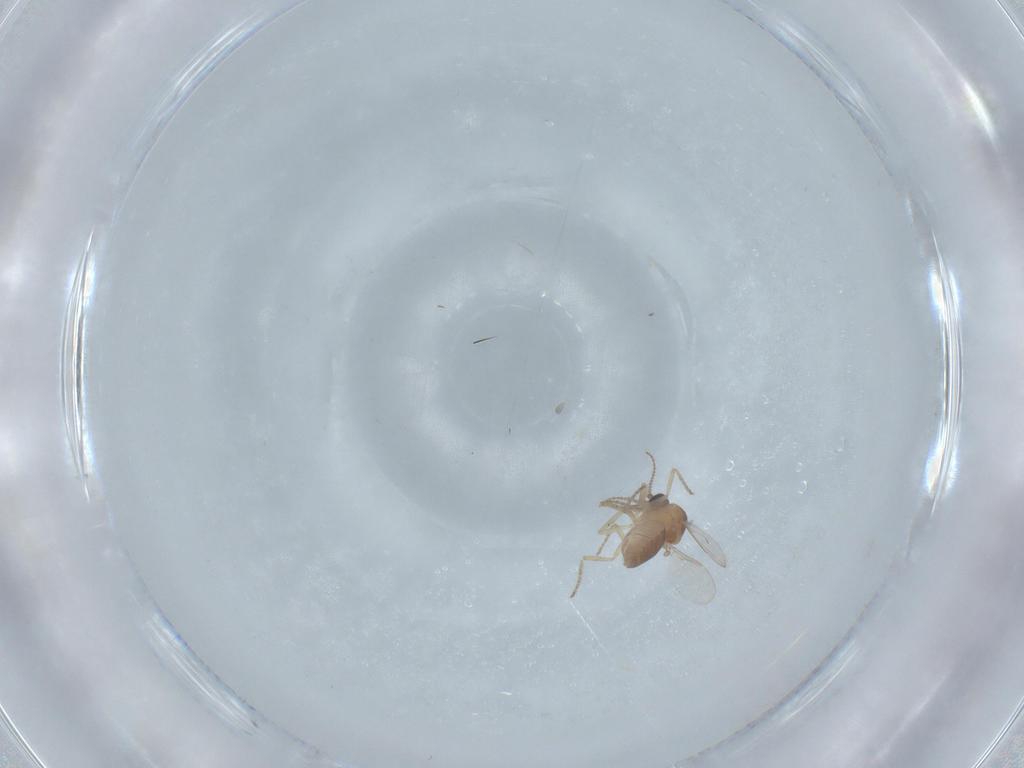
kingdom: Animalia
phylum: Arthropoda
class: Insecta
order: Diptera
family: Ceratopogonidae
